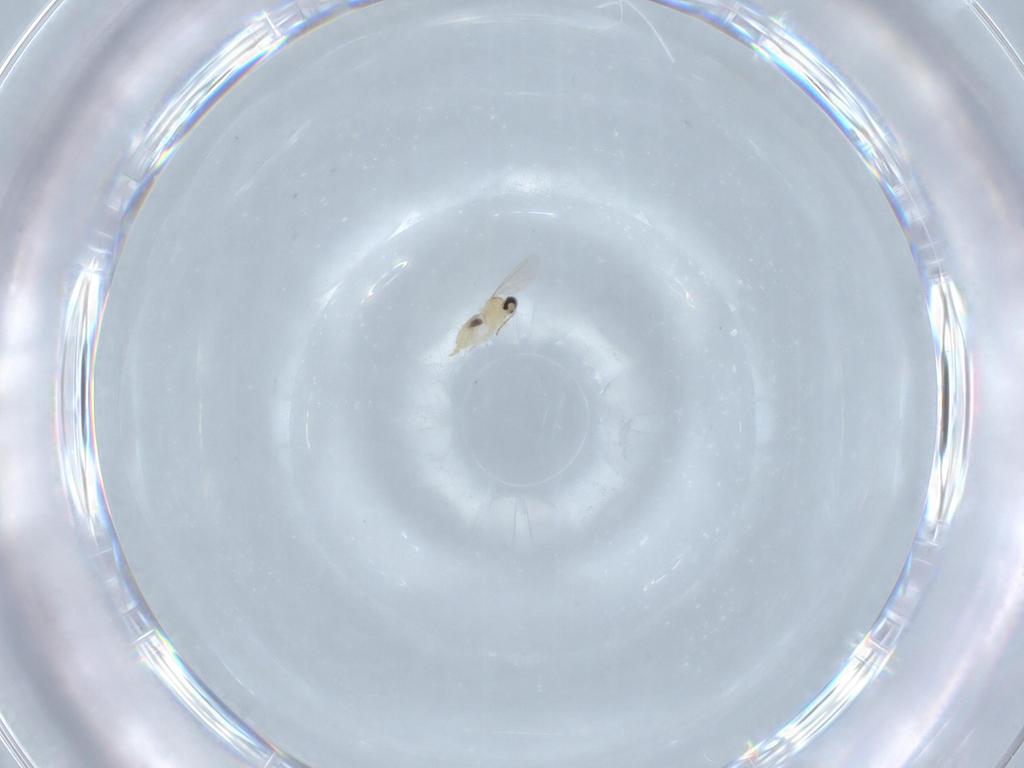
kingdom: Animalia
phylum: Arthropoda
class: Insecta
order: Diptera
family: Cecidomyiidae
